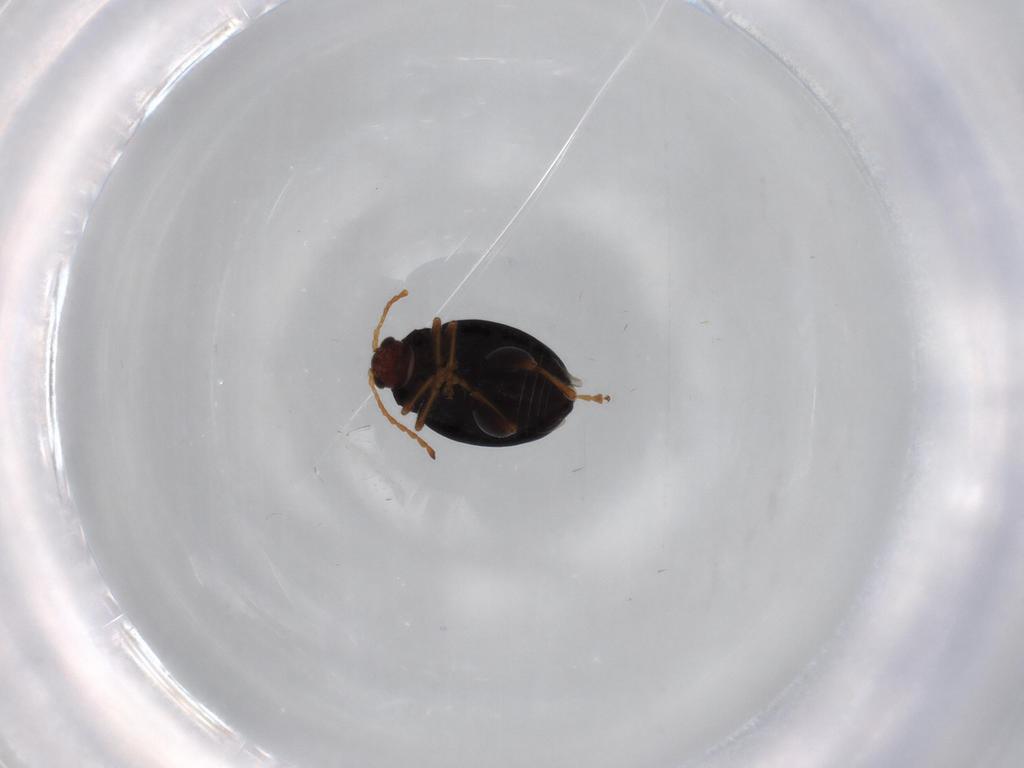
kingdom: Animalia
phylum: Arthropoda
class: Insecta
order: Coleoptera
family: Chrysomelidae
